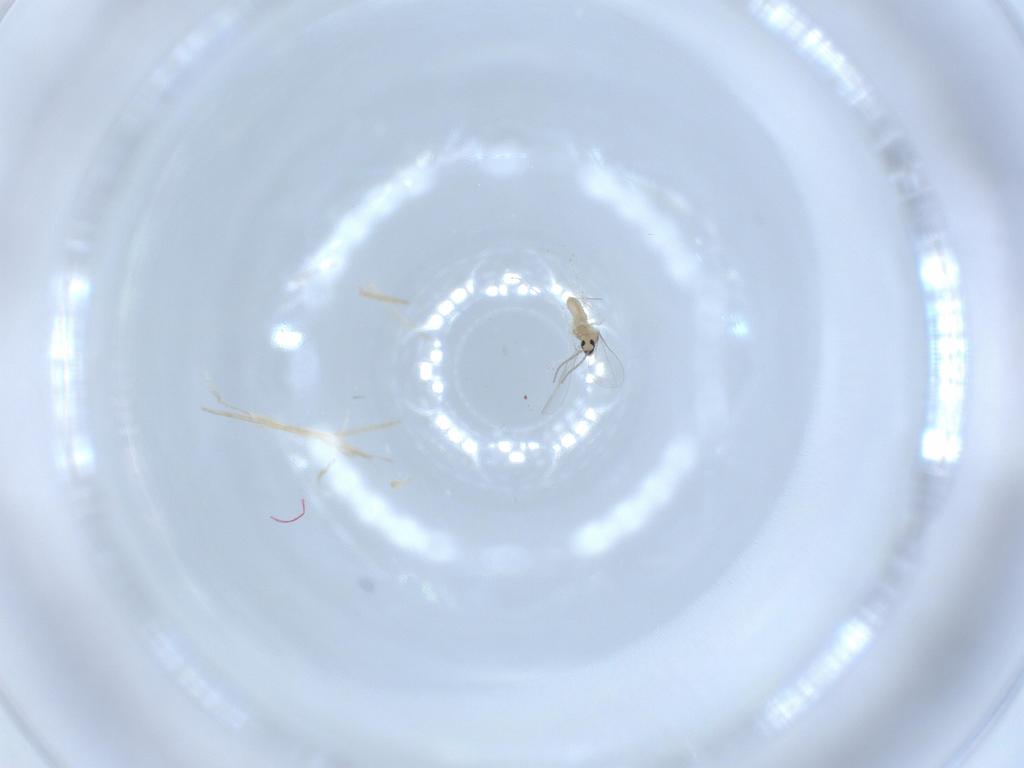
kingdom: Animalia
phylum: Arthropoda
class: Insecta
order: Diptera
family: Cecidomyiidae
